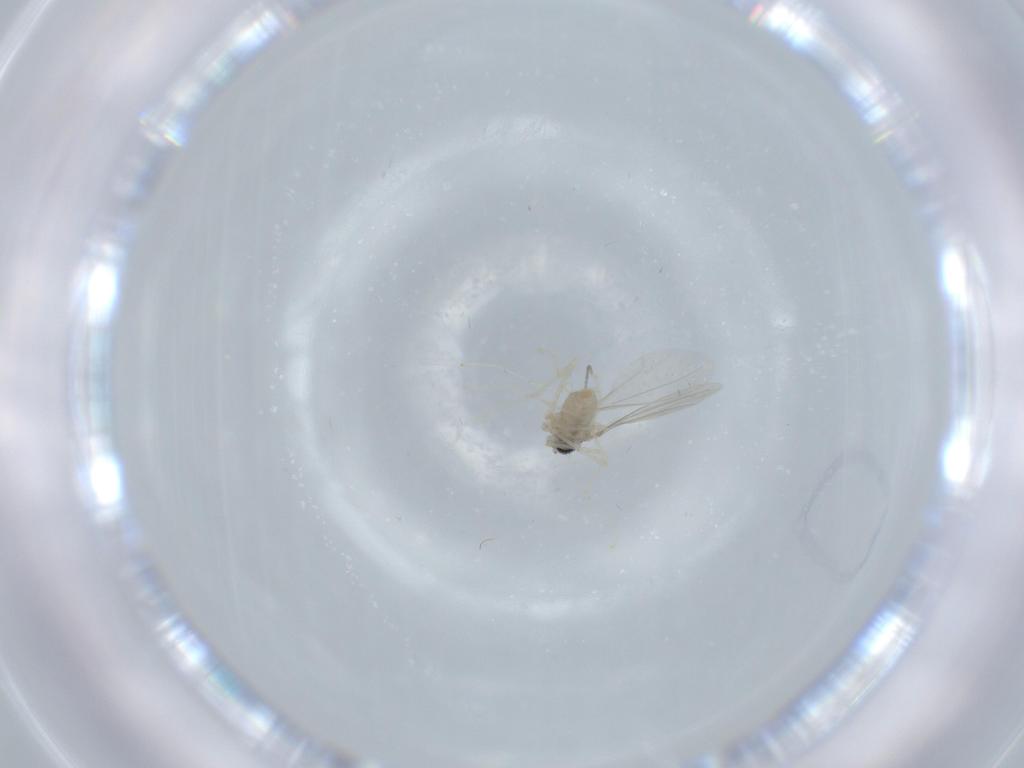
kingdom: Animalia
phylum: Arthropoda
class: Insecta
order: Diptera
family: Cecidomyiidae
